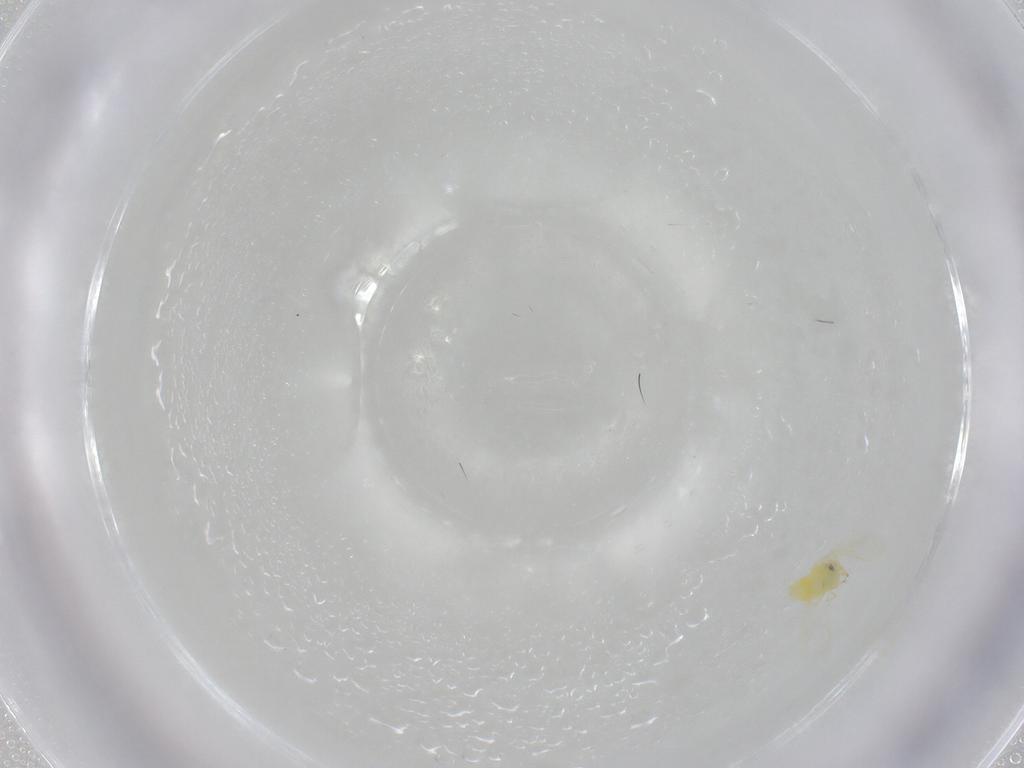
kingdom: Animalia
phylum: Arthropoda
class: Insecta
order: Hemiptera
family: Aleyrodidae
